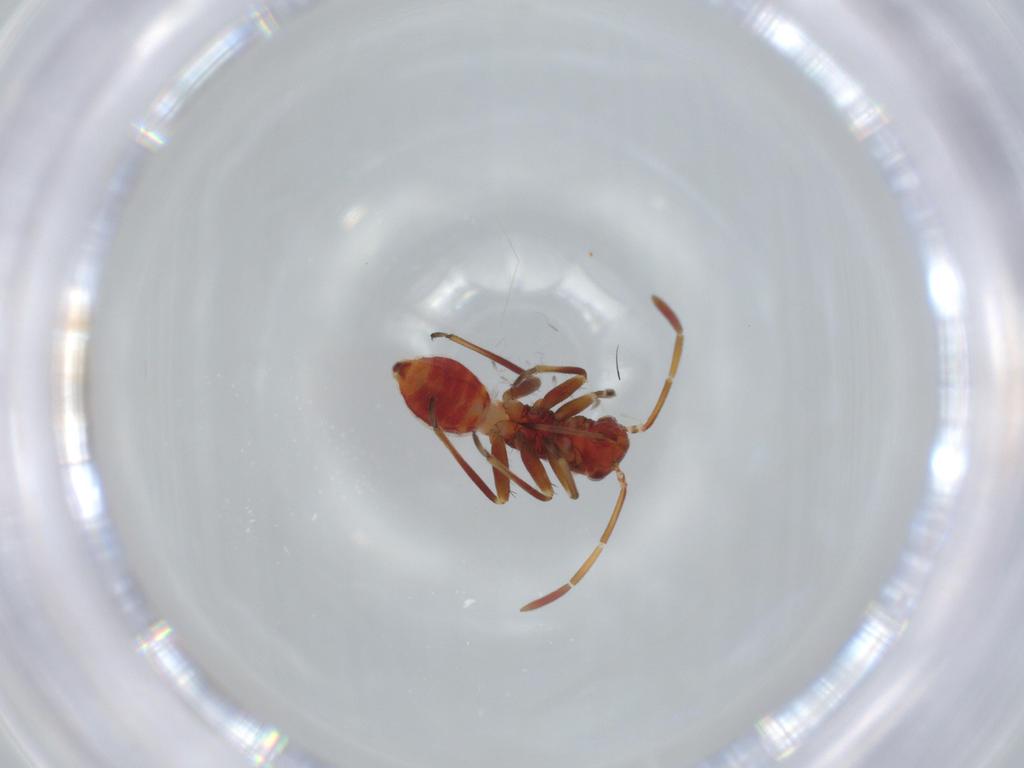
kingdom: Animalia
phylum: Arthropoda
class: Insecta
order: Hemiptera
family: Miridae
